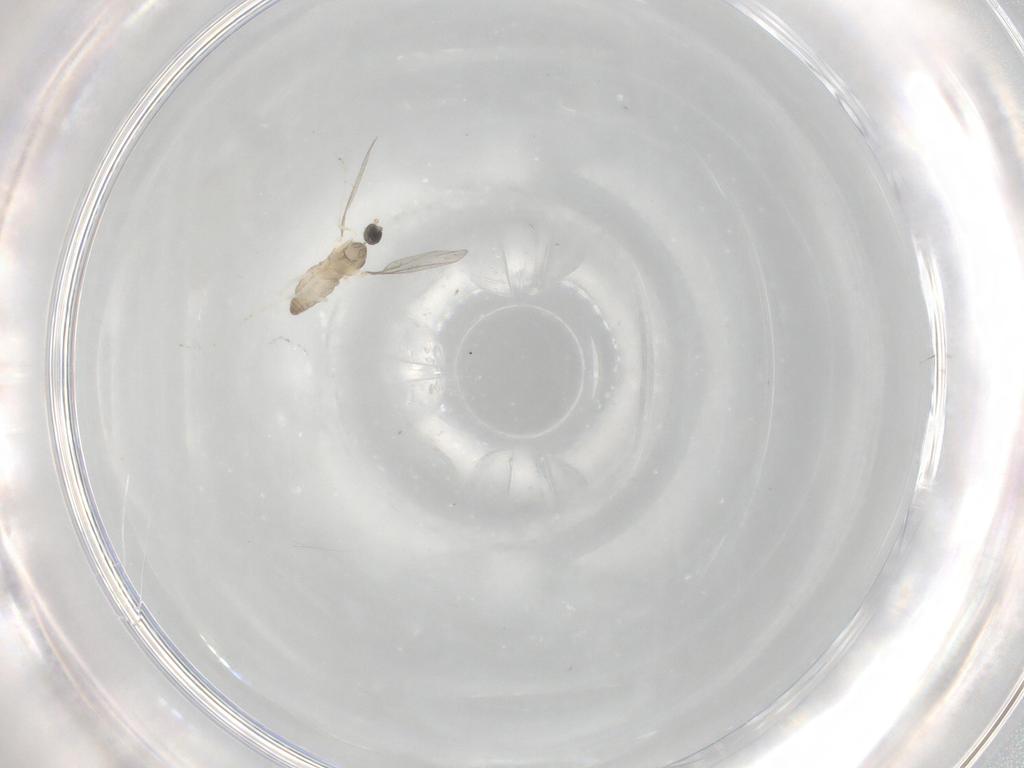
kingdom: Animalia
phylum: Arthropoda
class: Insecta
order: Diptera
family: Cecidomyiidae
